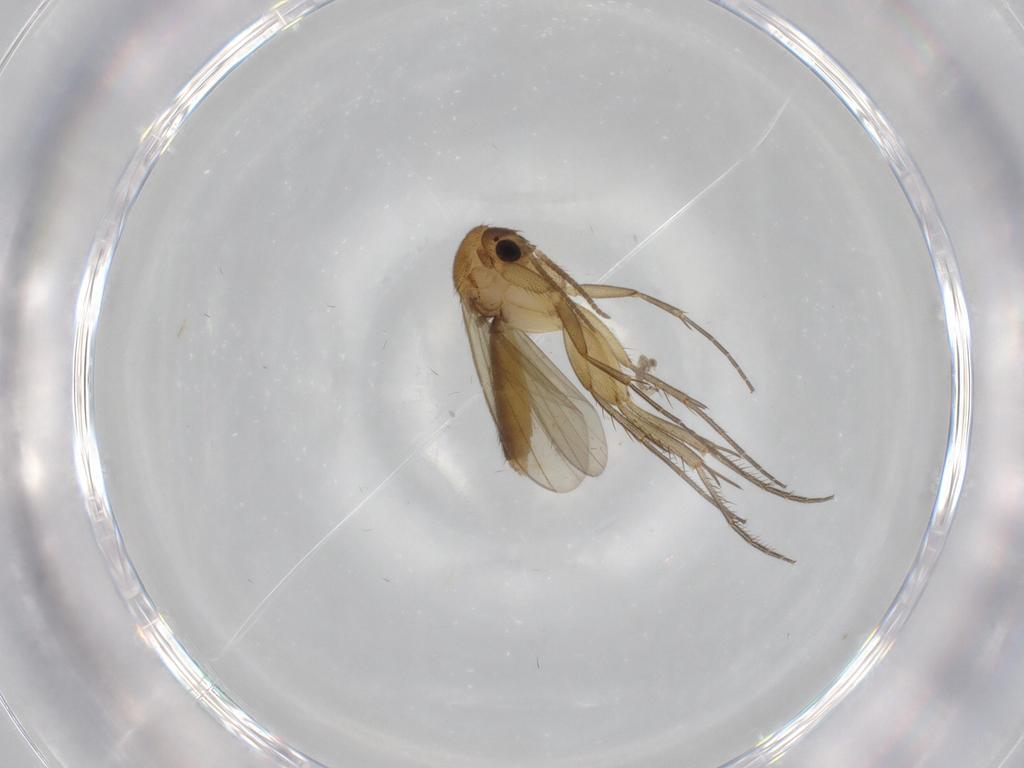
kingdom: Animalia
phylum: Arthropoda
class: Insecta
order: Diptera
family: Mycetophilidae
